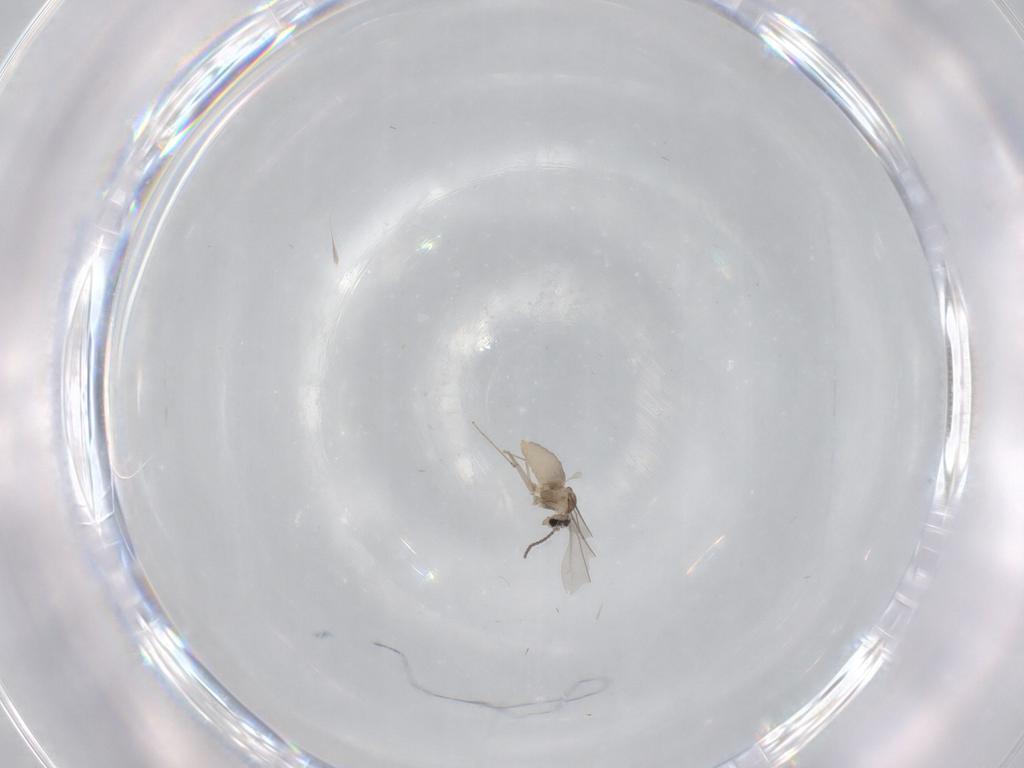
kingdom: Animalia
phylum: Arthropoda
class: Insecta
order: Diptera
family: Cecidomyiidae
